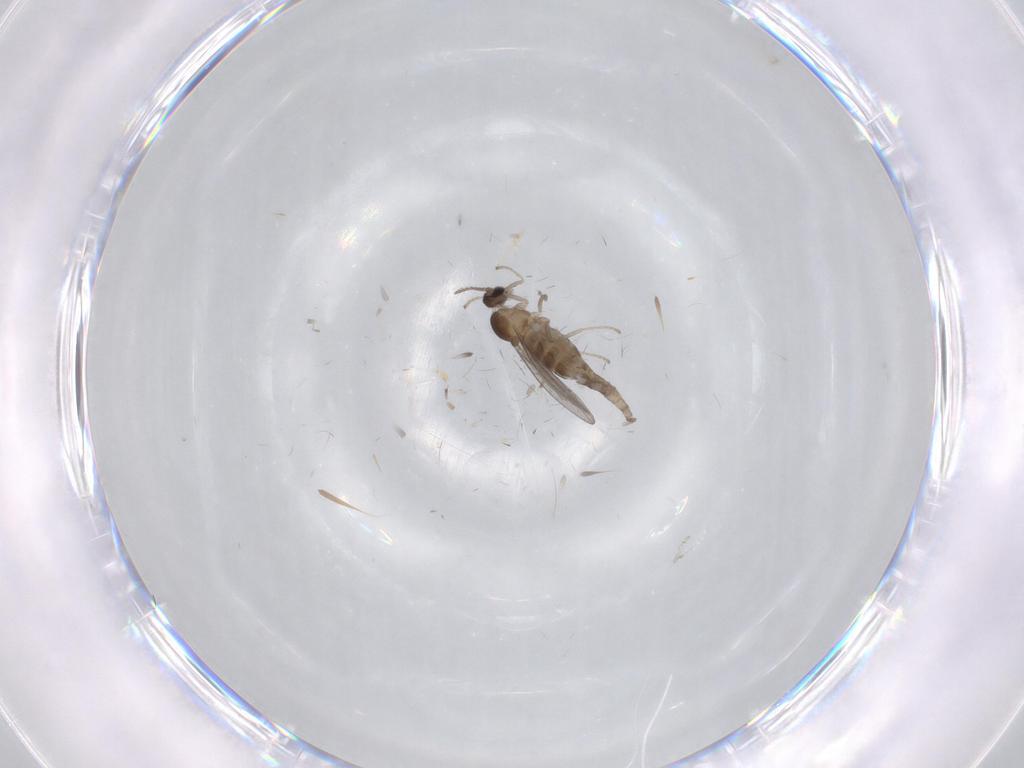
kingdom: Animalia
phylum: Arthropoda
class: Insecta
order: Diptera
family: Cecidomyiidae
